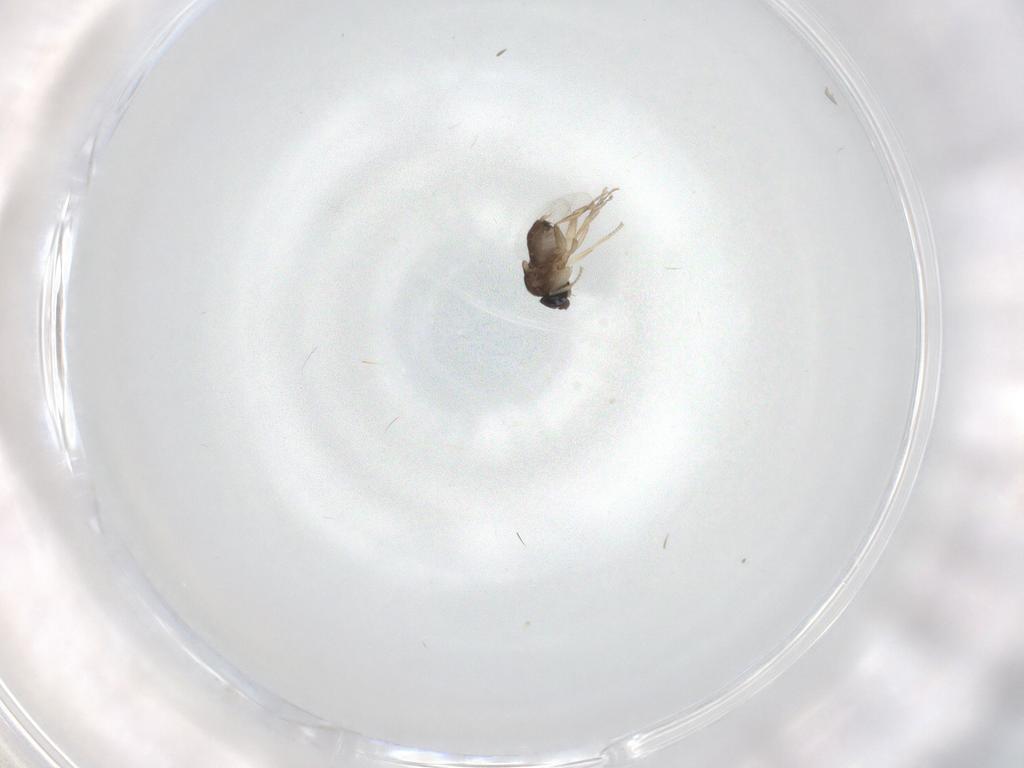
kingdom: Animalia
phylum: Arthropoda
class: Insecta
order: Diptera
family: Phoridae
